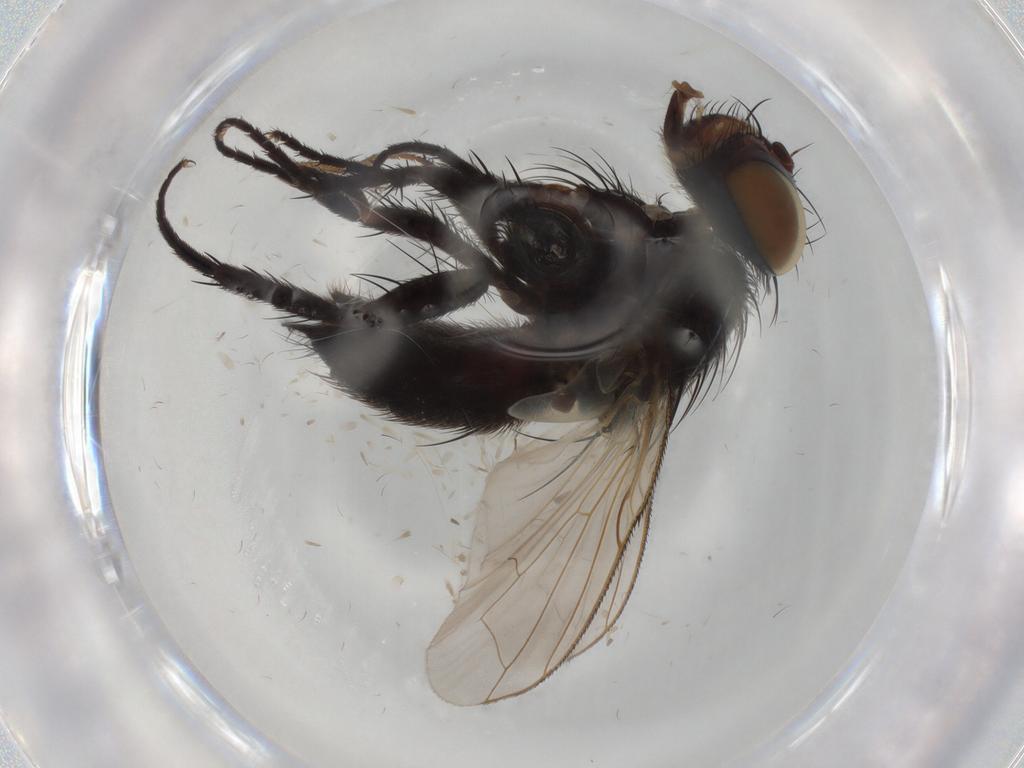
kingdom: Animalia
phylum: Arthropoda
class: Insecta
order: Diptera
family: Tachinidae
